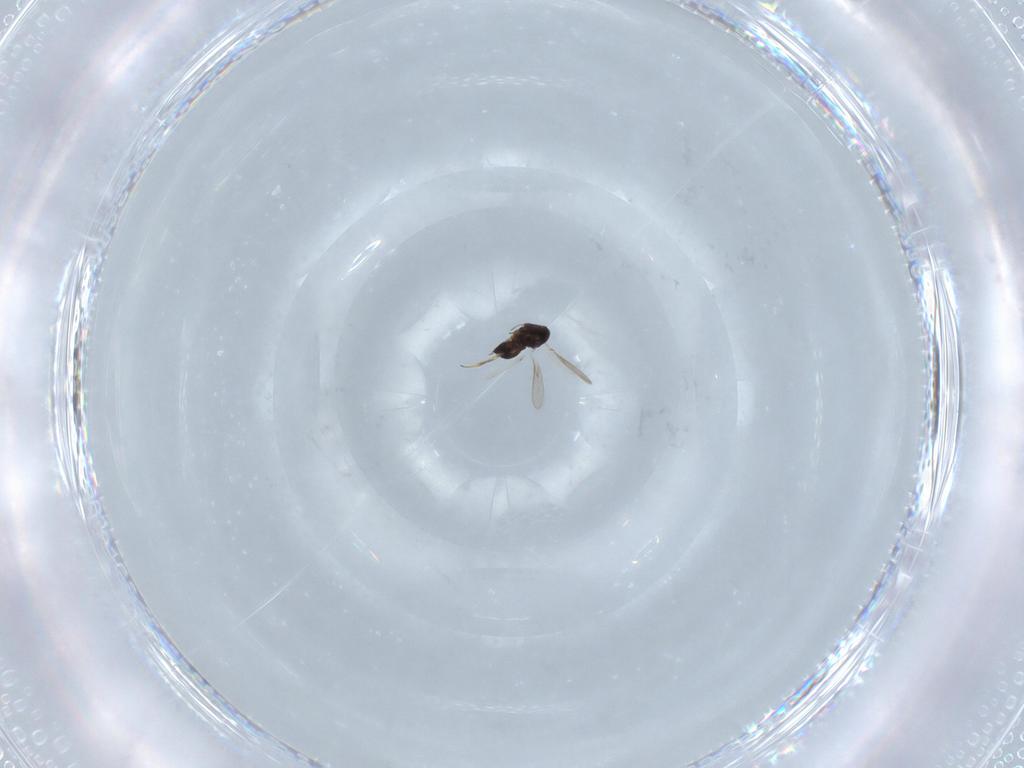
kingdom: Animalia
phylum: Arthropoda
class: Insecta
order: Hymenoptera
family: Scelionidae
